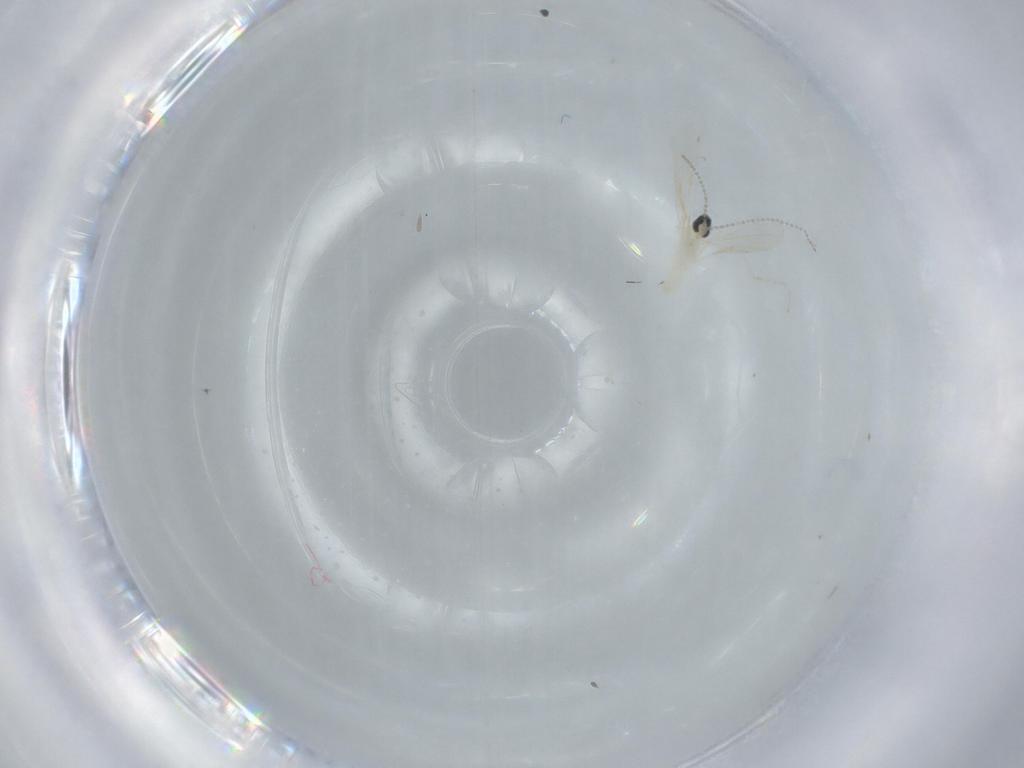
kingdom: Animalia
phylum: Arthropoda
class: Insecta
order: Diptera
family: Cecidomyiidae
